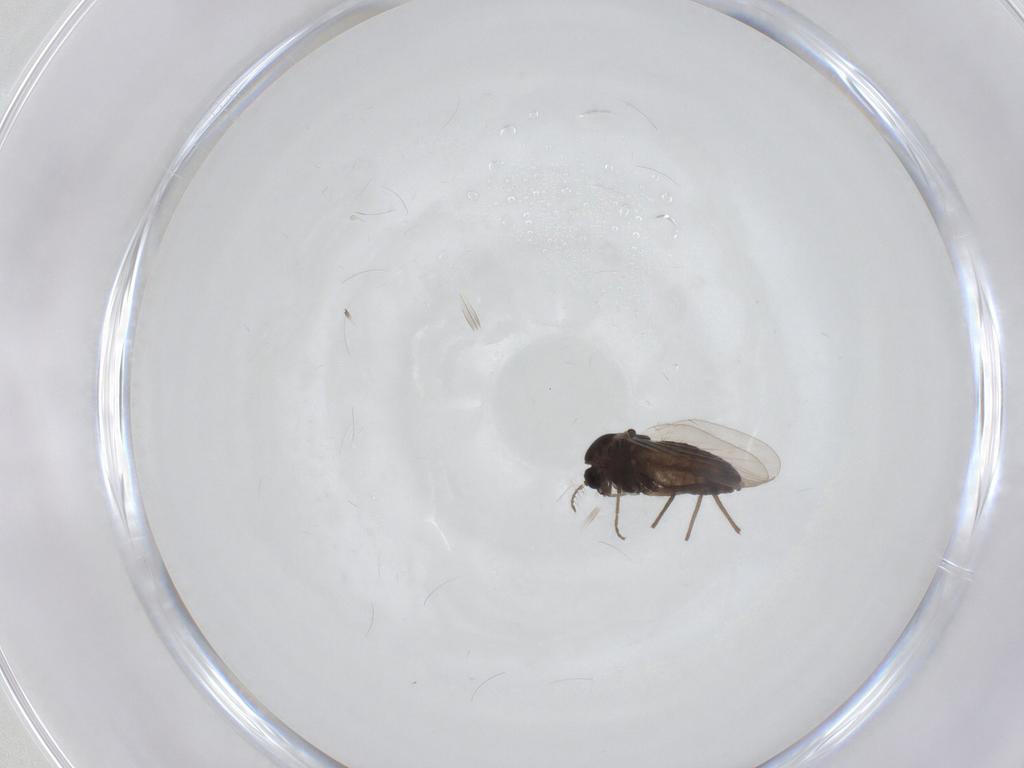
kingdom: Animalia
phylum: Arthropoda
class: Insecta
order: Diptera
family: Chironomidae
